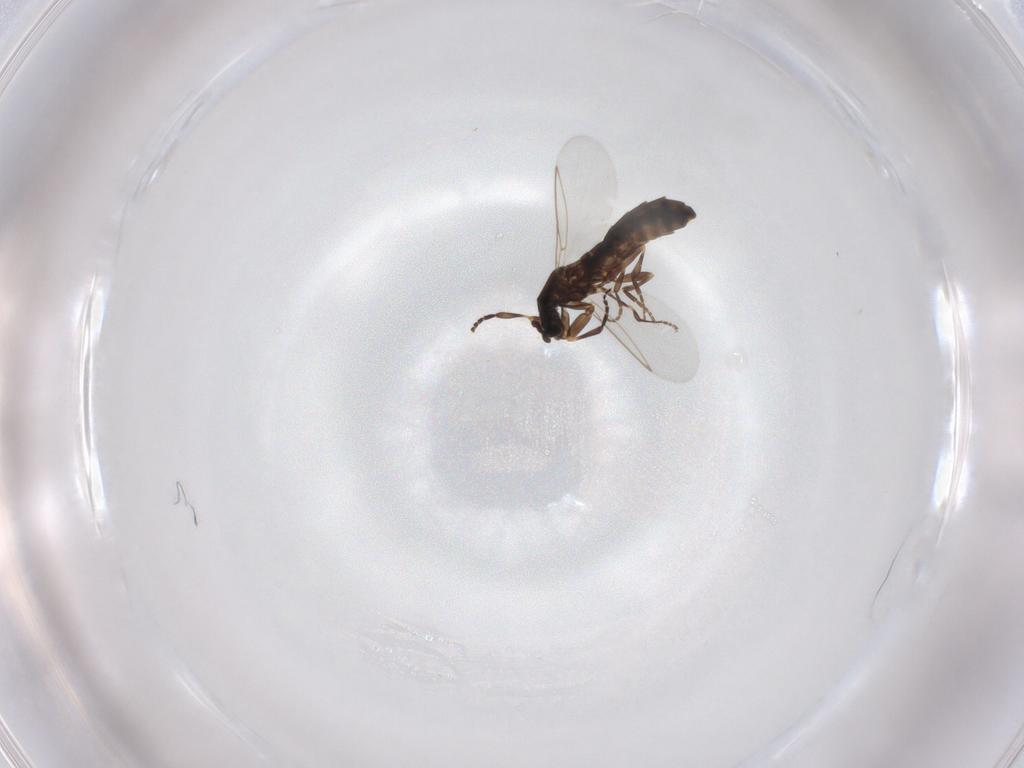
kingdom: Animalia
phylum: Arthropoda
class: Insecta
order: Diptera
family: Scatopsidae
